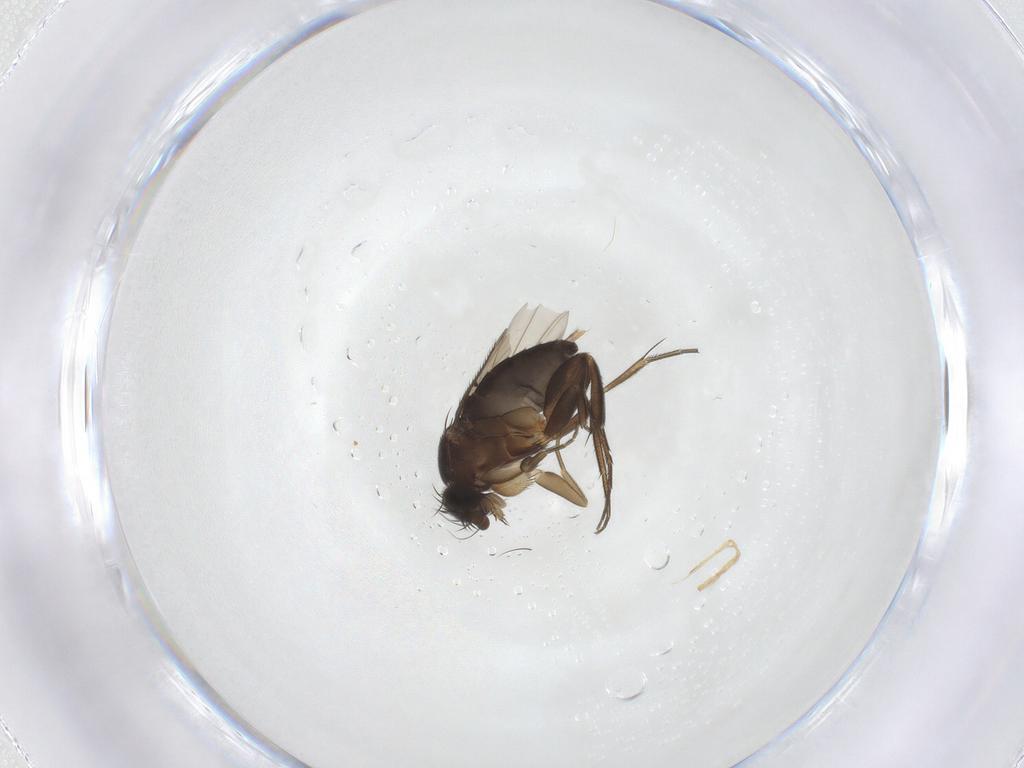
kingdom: Animalia
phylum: Arthropoda
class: Insecta
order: Diptera
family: Phoridae
